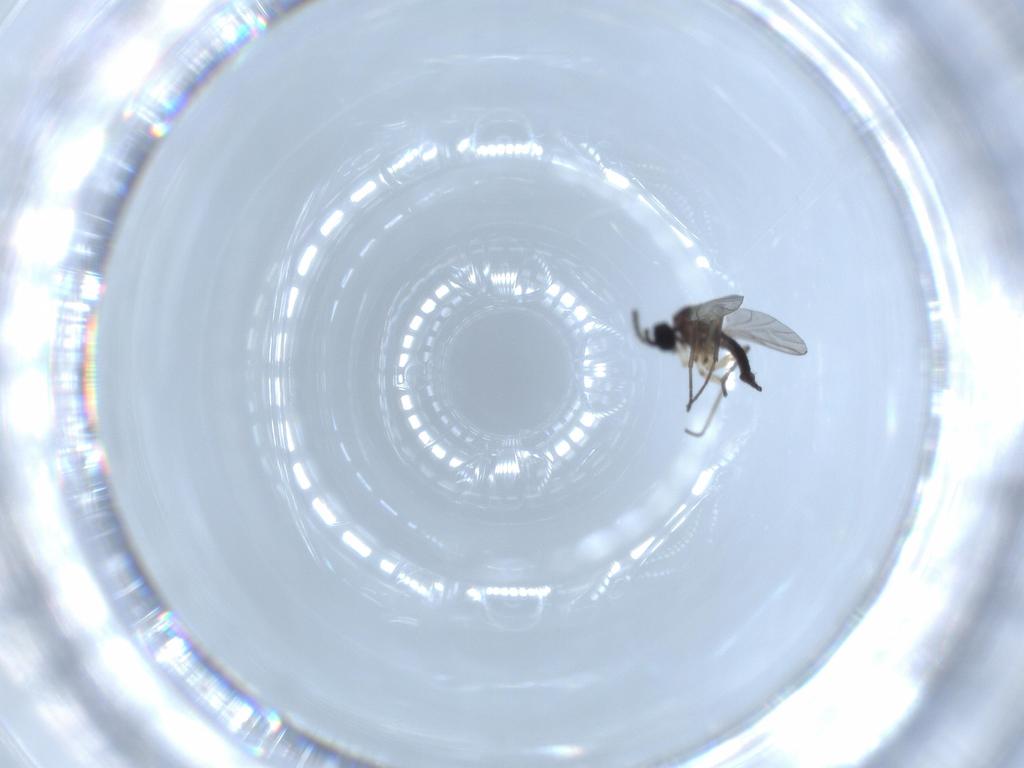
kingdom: Animalia
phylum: Arthropoda
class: Insecta
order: Diptera
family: Sciaridae
